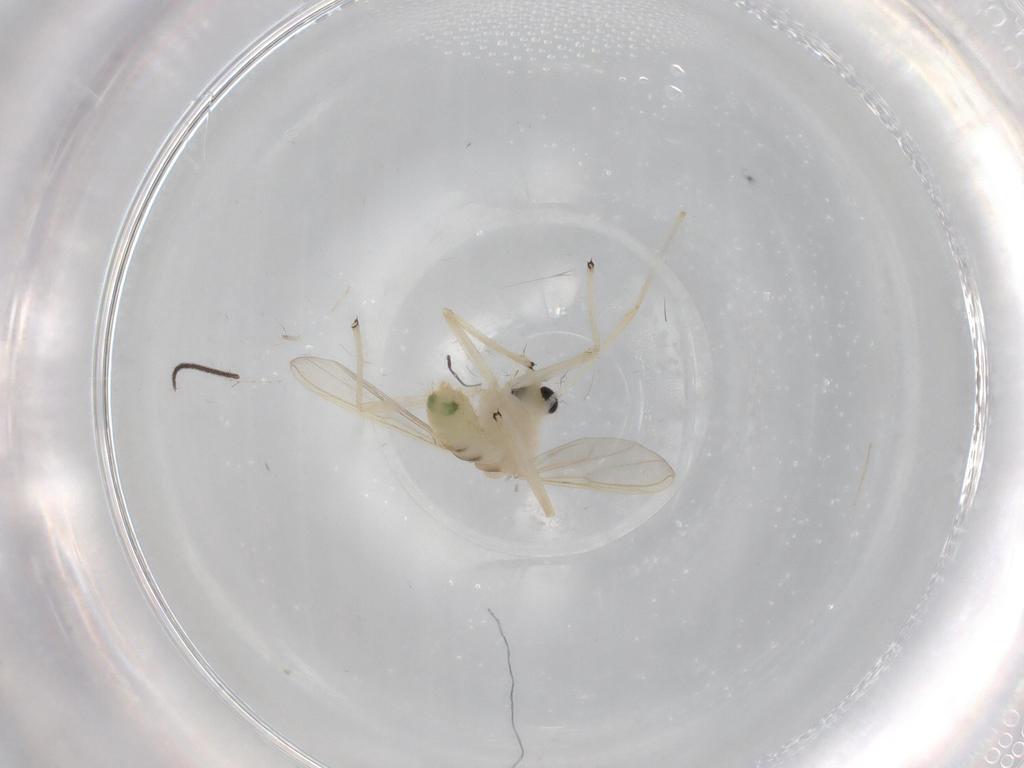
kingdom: Animalia
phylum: Arthropoda
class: Insecta
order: Diptera
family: Chironomidae
